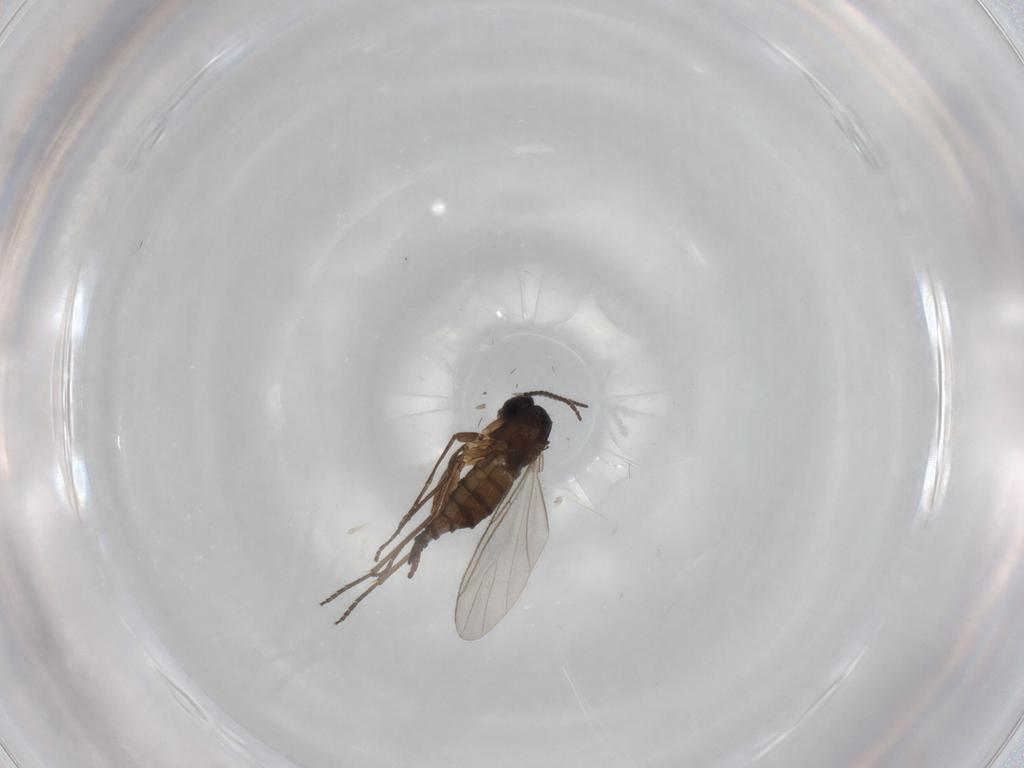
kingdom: Animalia
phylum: Arthropoda
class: Insecta
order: Diptera
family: Sciaridae
